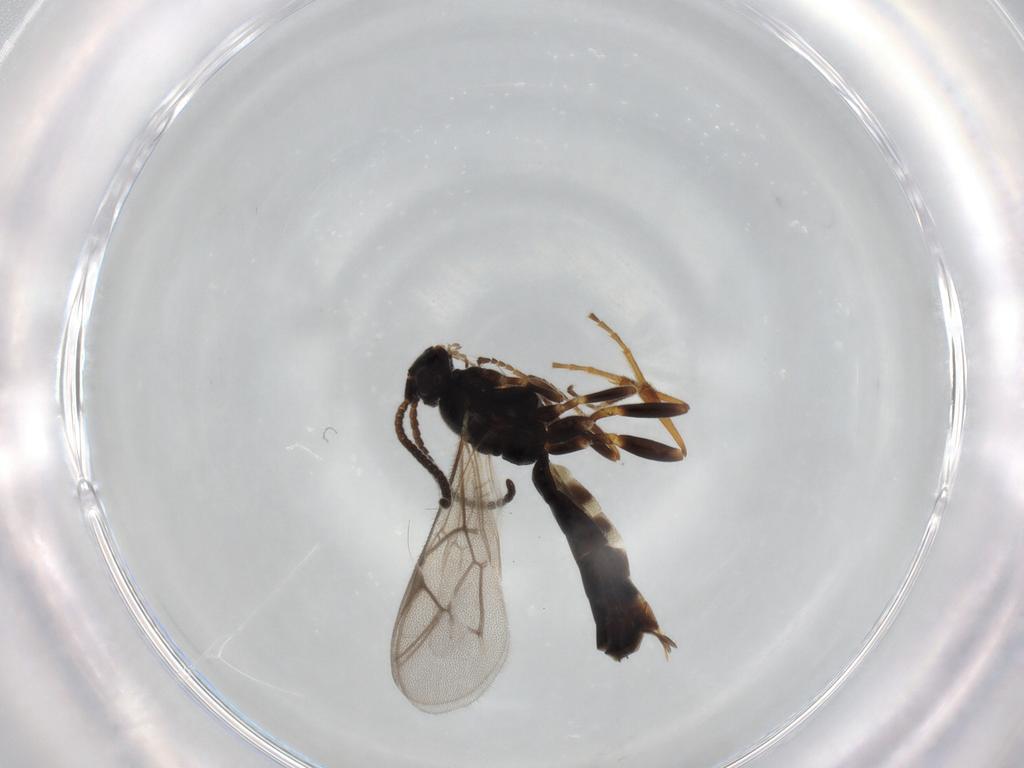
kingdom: Animalia
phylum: Arthropoda
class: Insecta
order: Hymenoptera
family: Ichneumonidae
